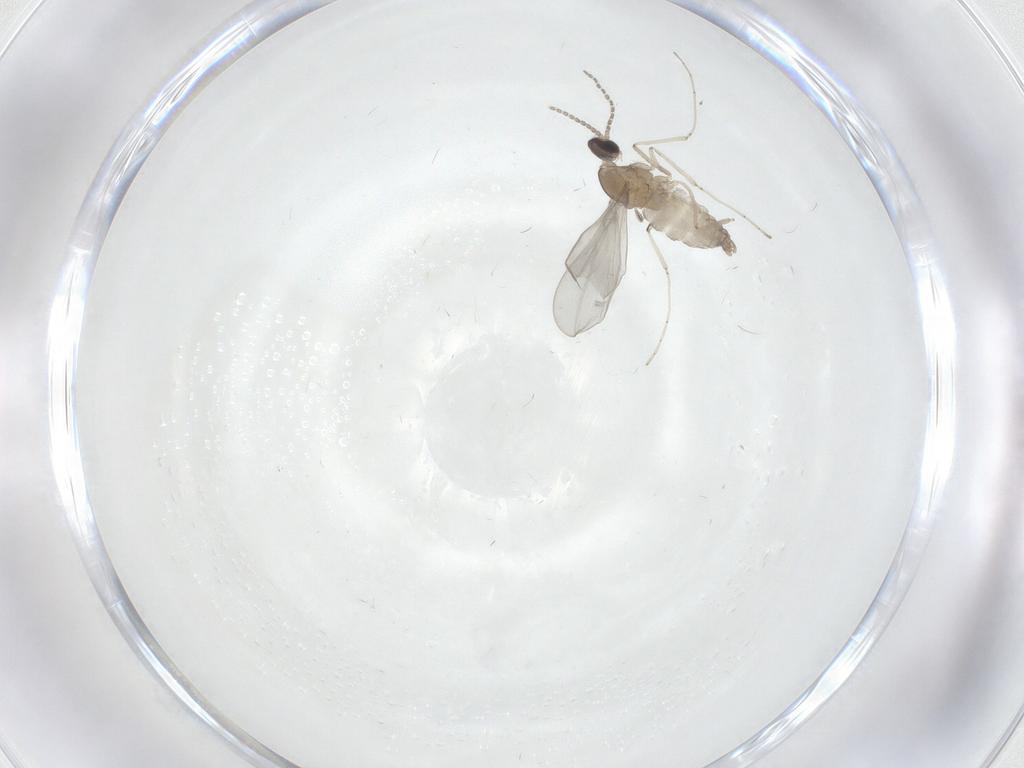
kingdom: Animalia
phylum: Arthropoda
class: Insecta
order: Diptera
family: Cecidomyiidae
